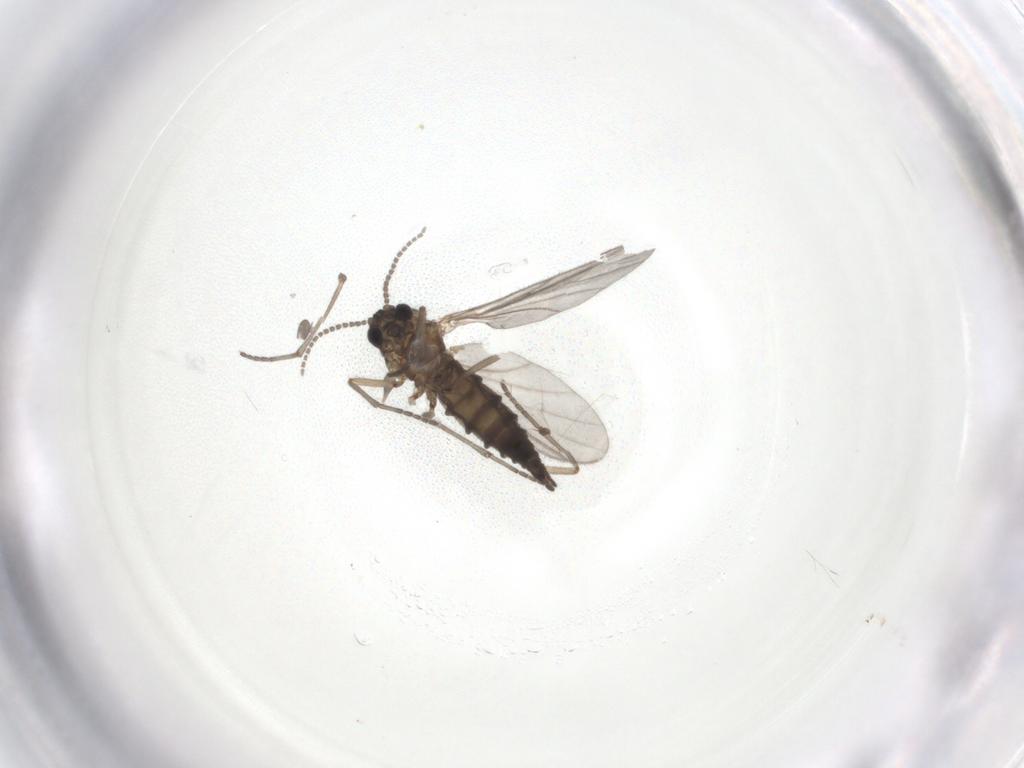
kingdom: Animalia
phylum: Arthropoda
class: Insecta
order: Diptera
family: Sciaridae
